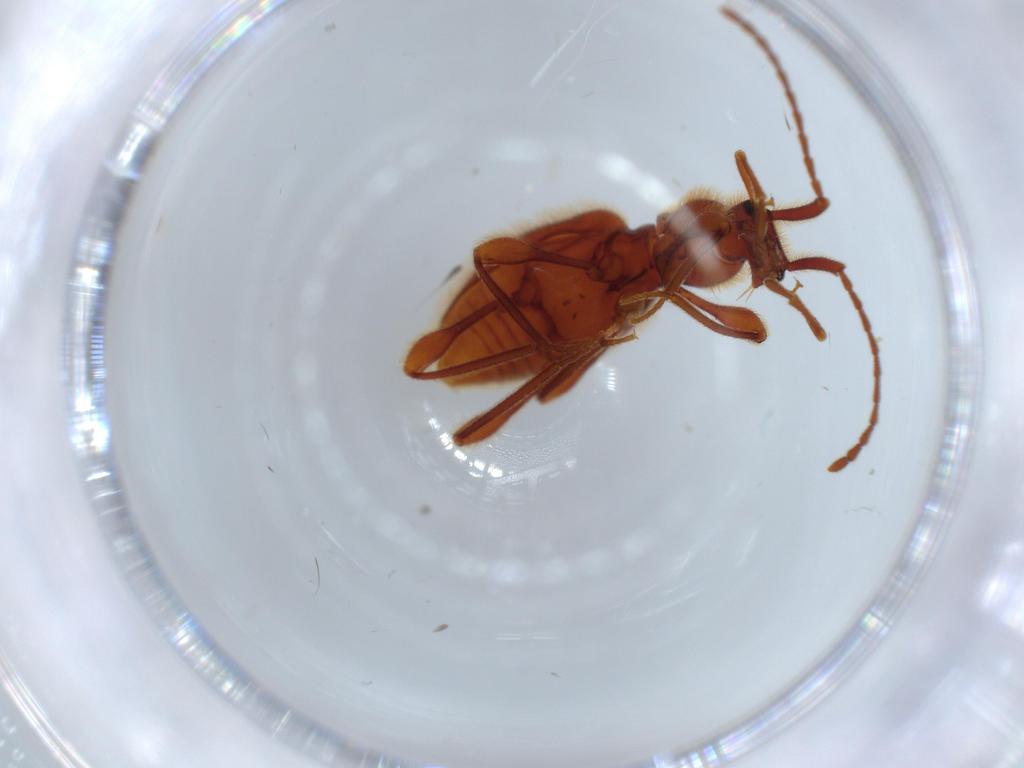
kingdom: Animalia
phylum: Arthropoda
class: Insecta
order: Coleoptera
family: Staphylinidae
